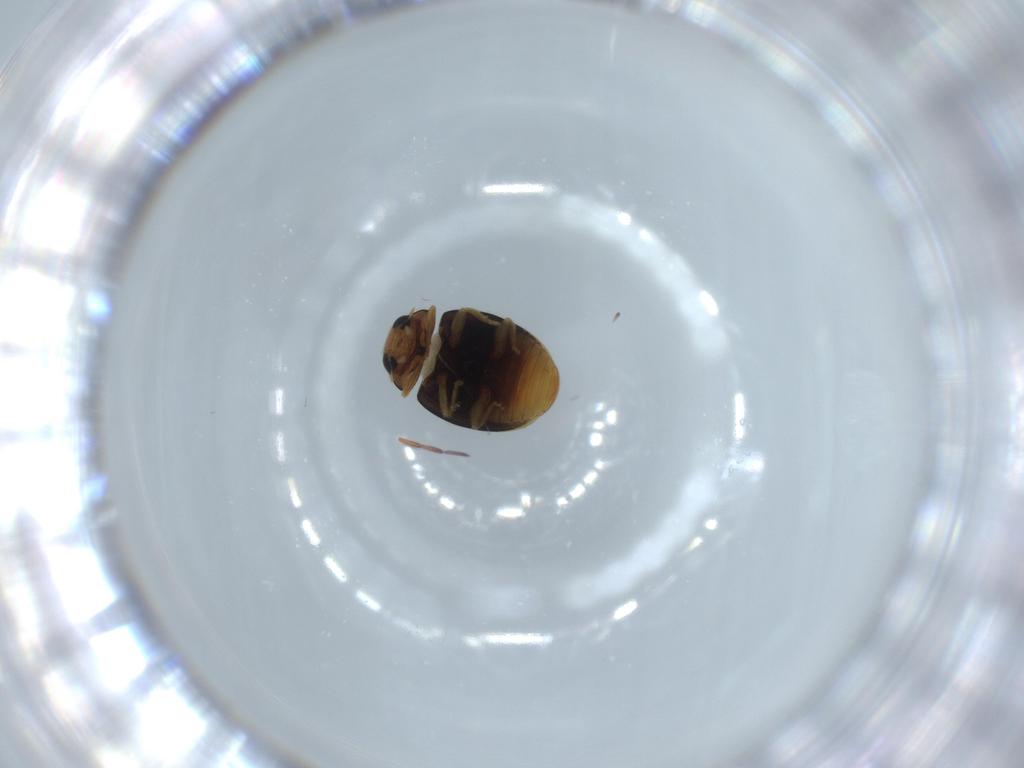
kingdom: Animalia
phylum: Arthropoda
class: Insecta
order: Coleoptera
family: Coccinellidae
